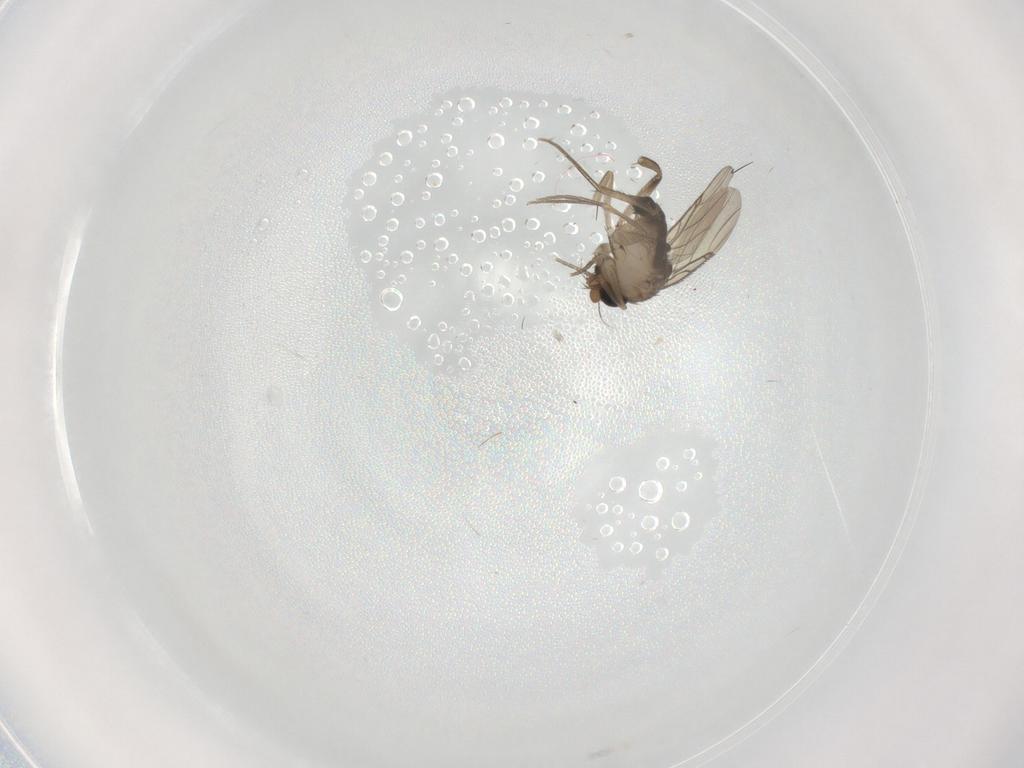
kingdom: Animalia
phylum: Arthropoda
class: Insecta
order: Diptera
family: Phoridae
